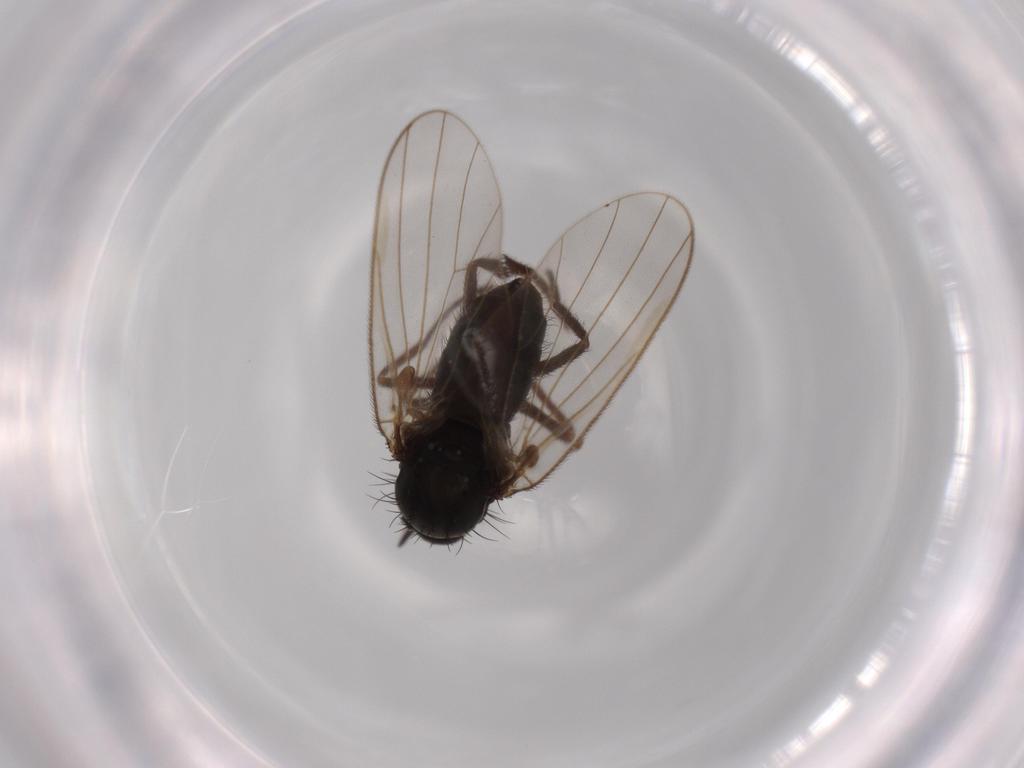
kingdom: Animalia
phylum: Arthropoda
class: Insecta
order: Diptera
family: Dolichopodidae
